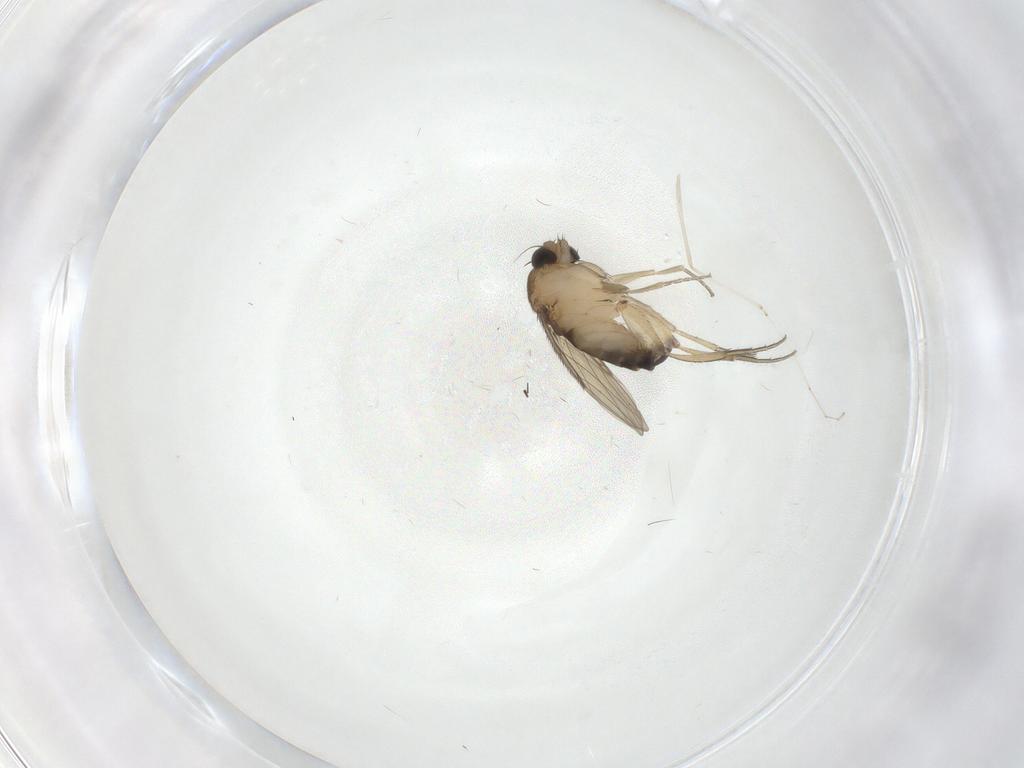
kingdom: Animalia
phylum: Arthropoda
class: Insecta
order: Diptera
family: Phoridae
